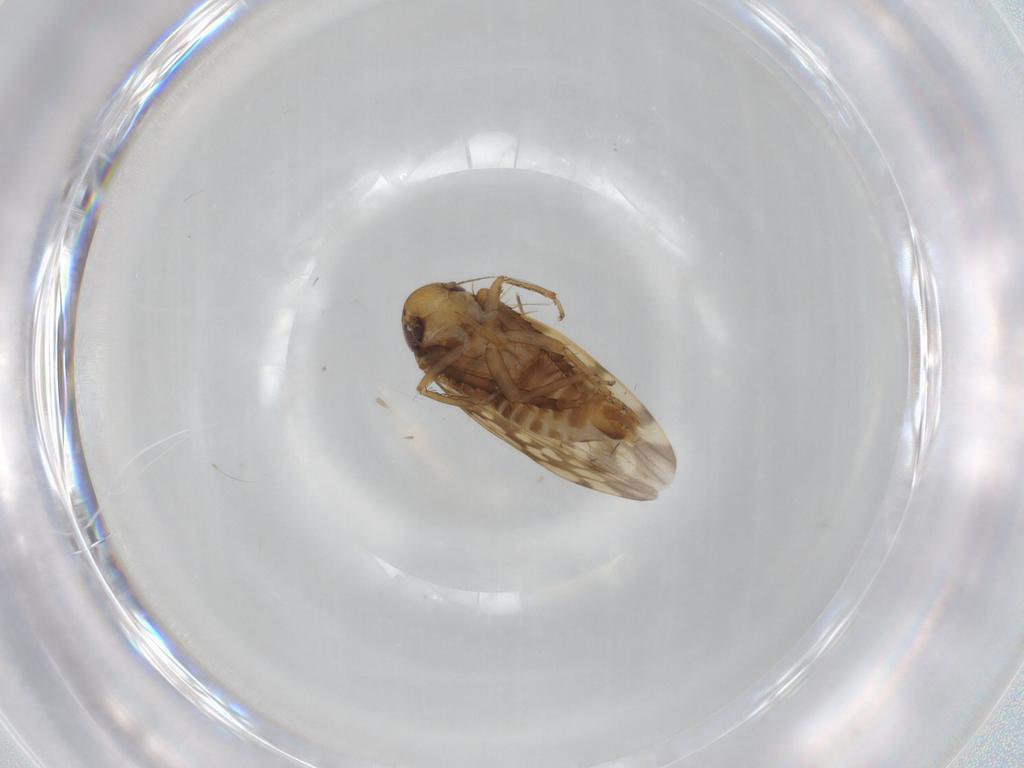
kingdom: Animalia
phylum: Arthropoda
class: Insecta
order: Hemiptera
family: Cicadellidae
